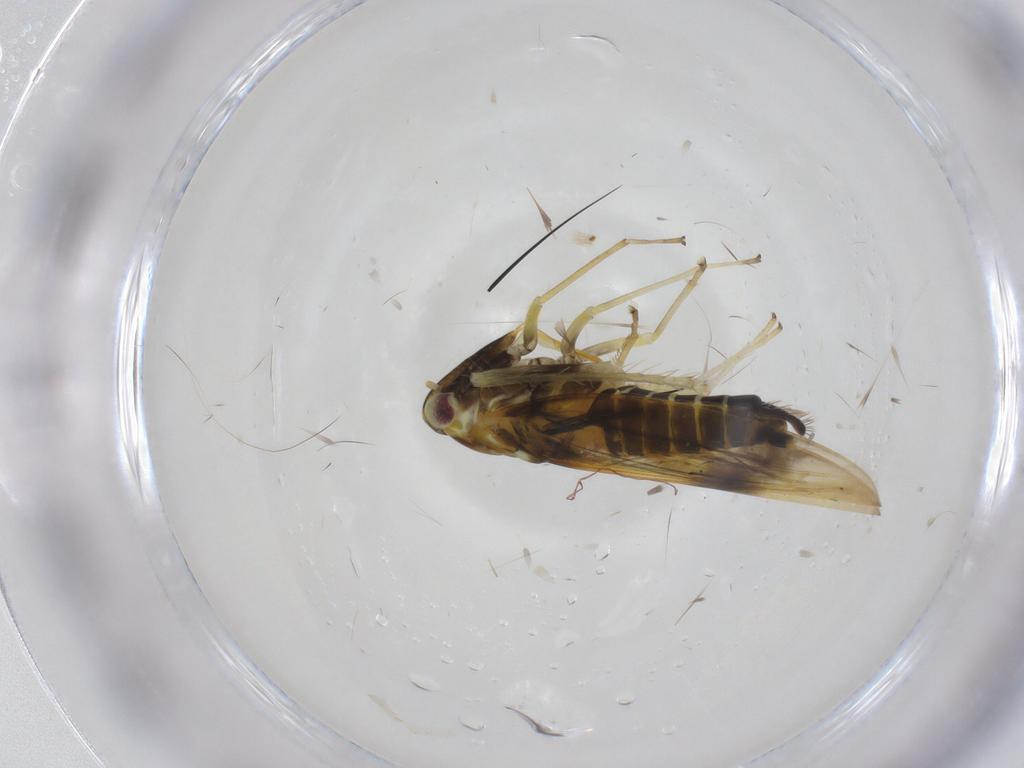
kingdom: Animalia
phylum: Arthropoda
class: Insecta
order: Hemiptera
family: Cicadellidae
